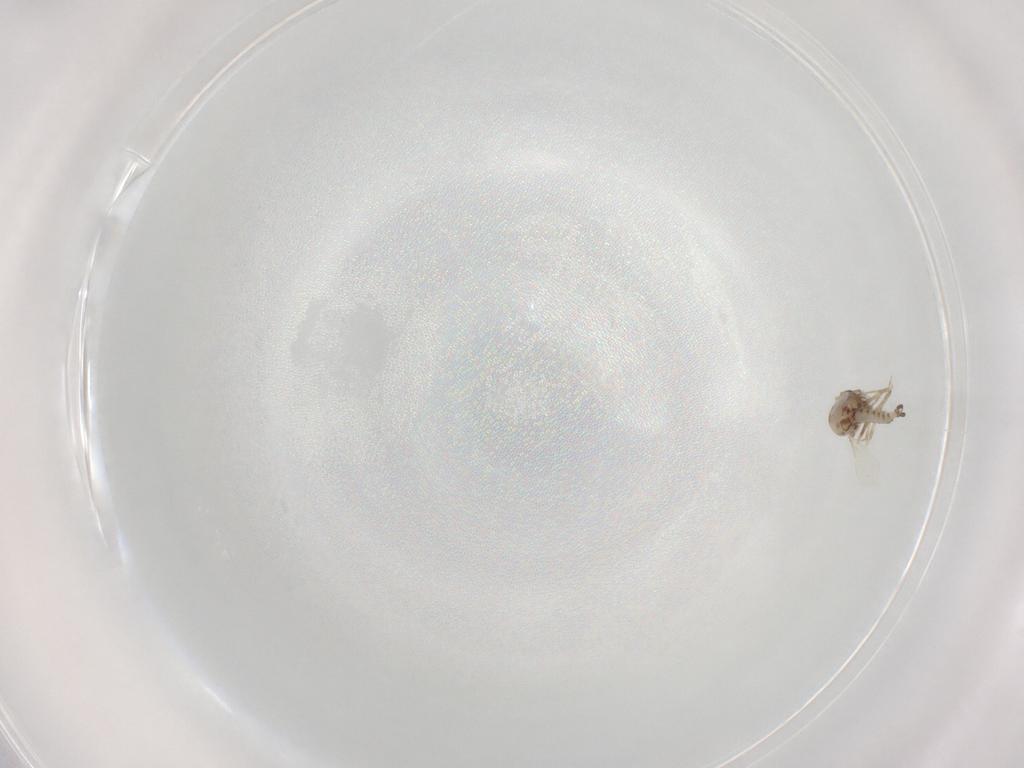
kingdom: Animalia
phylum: Arthropoda
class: Insecta
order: Diptera
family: Ceratopogonidae
